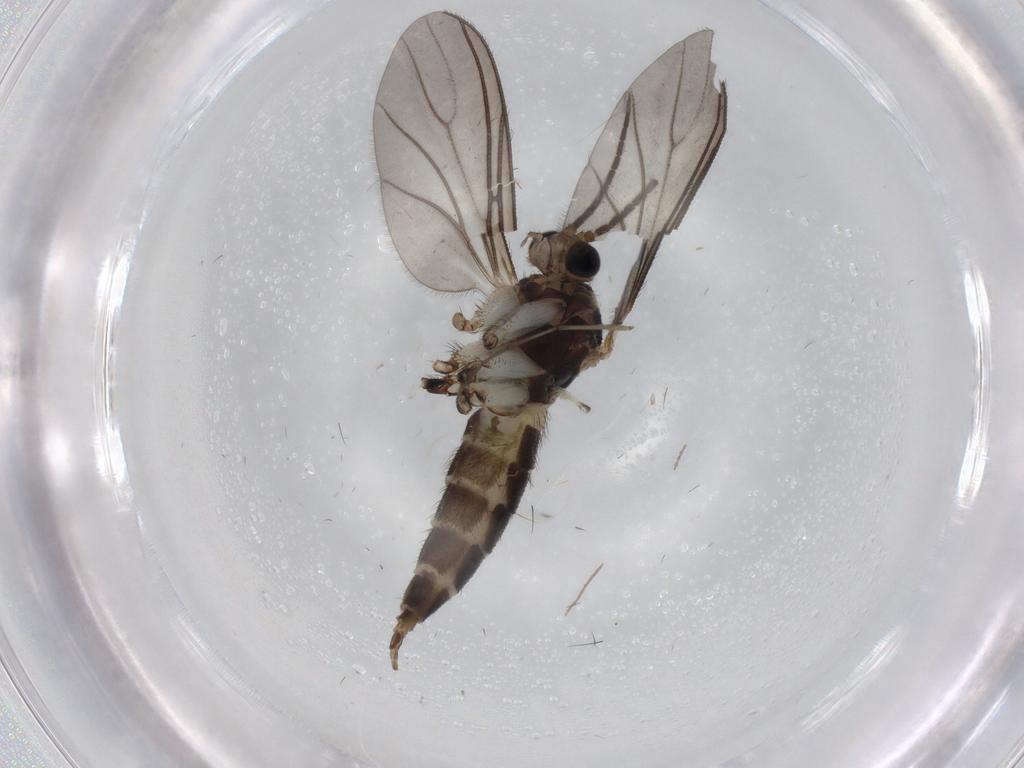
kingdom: Animalia
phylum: Arthropoda
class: Insecta
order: Diptera
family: Sciaridae
